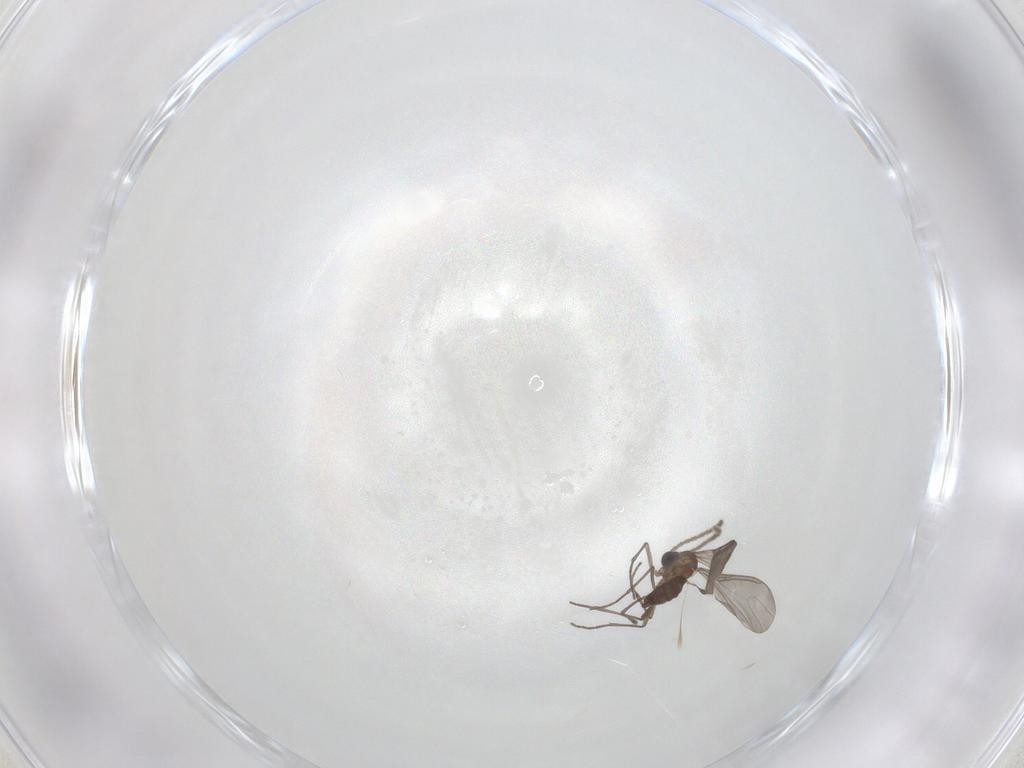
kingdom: Animalia
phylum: Arthropoda
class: Insecta
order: Diptera
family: Sciaridae
